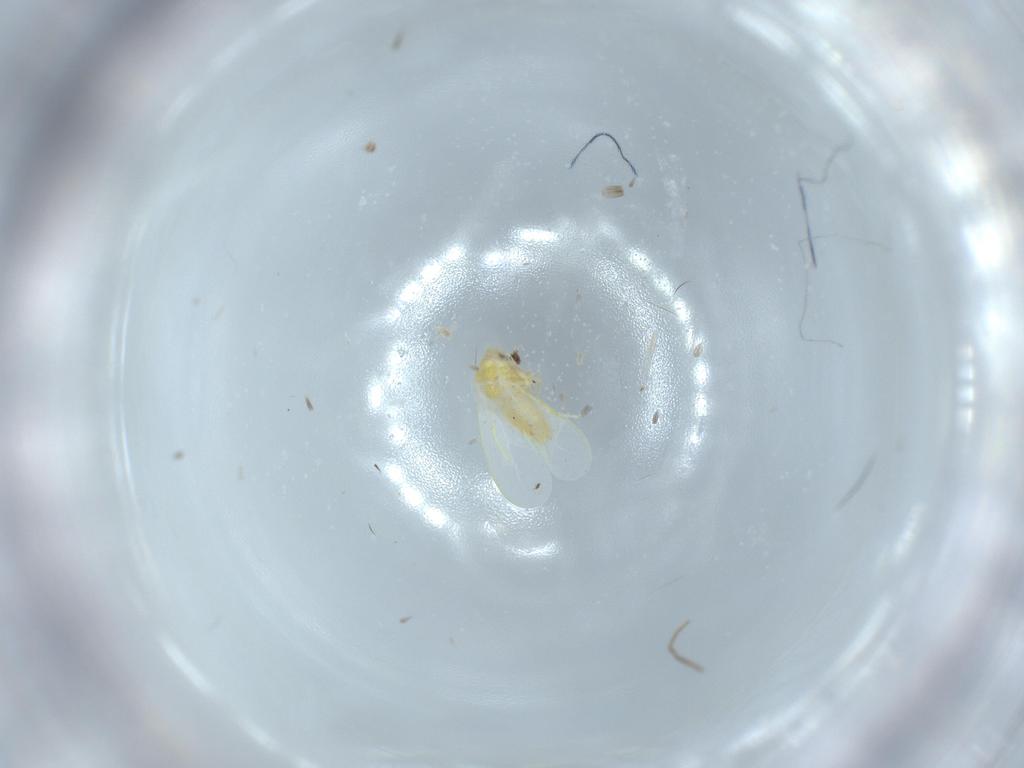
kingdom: Animalia
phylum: Arthropoda
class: Insecta
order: Hemiptera
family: Aleyrodidae
